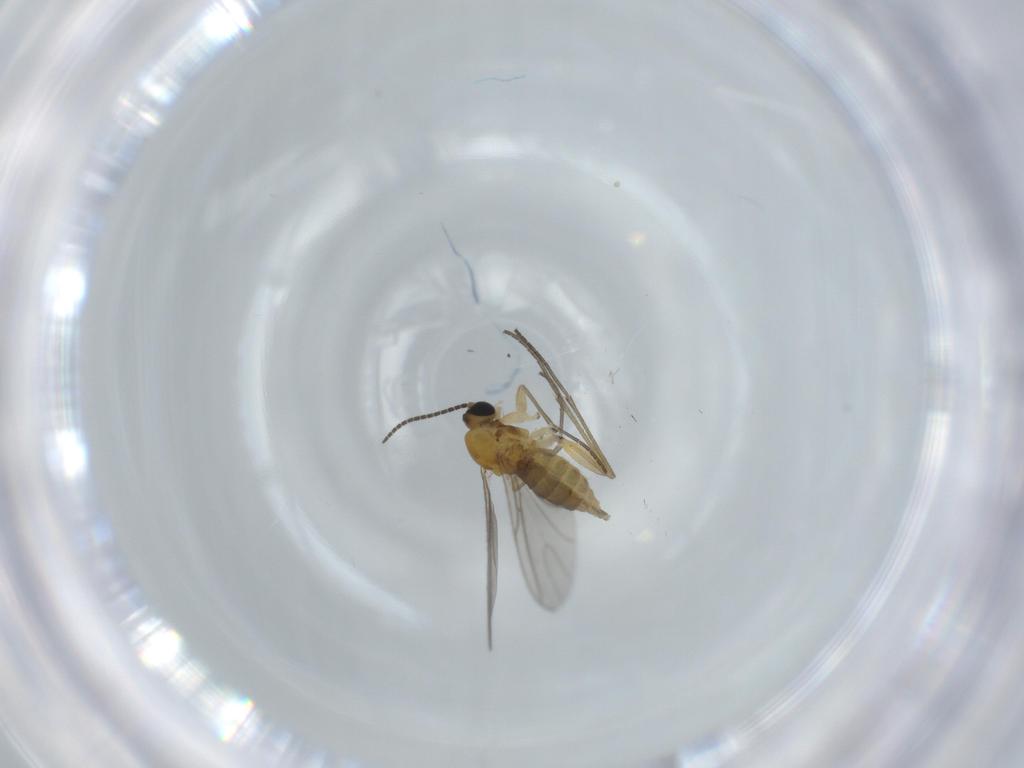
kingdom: Animalia
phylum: Arthropoda
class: Insecta
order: Diptera
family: Sciaridae
